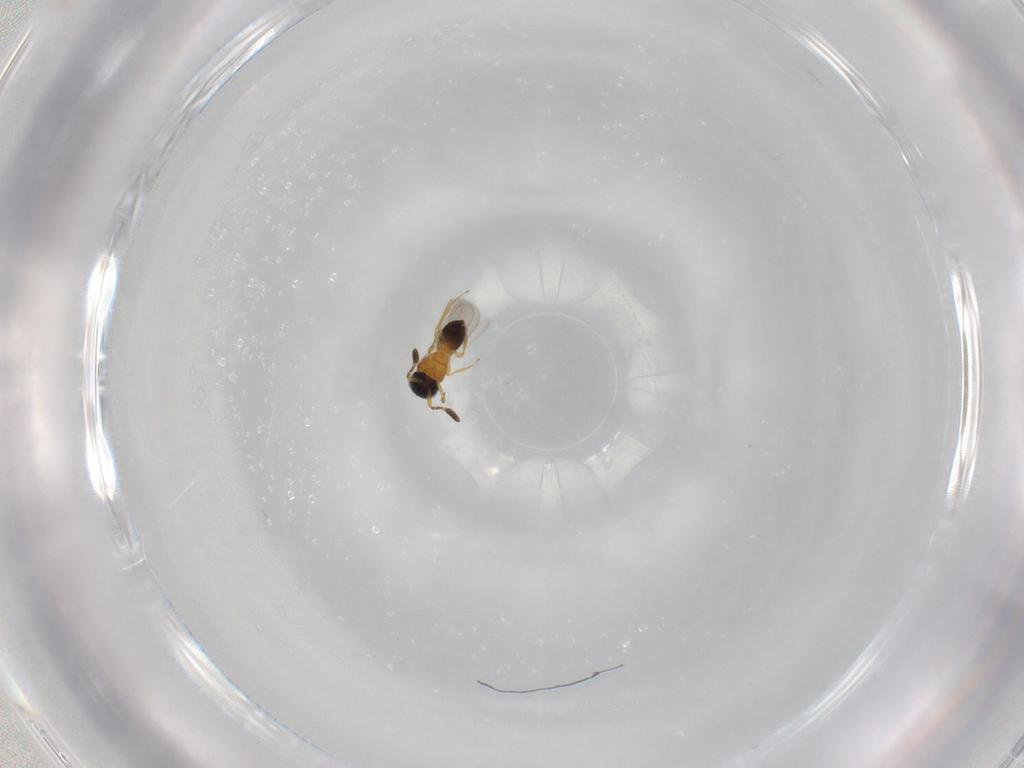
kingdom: Animalia
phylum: Arthropoda
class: Insecta
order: Hymenoptera
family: Scelionidae
